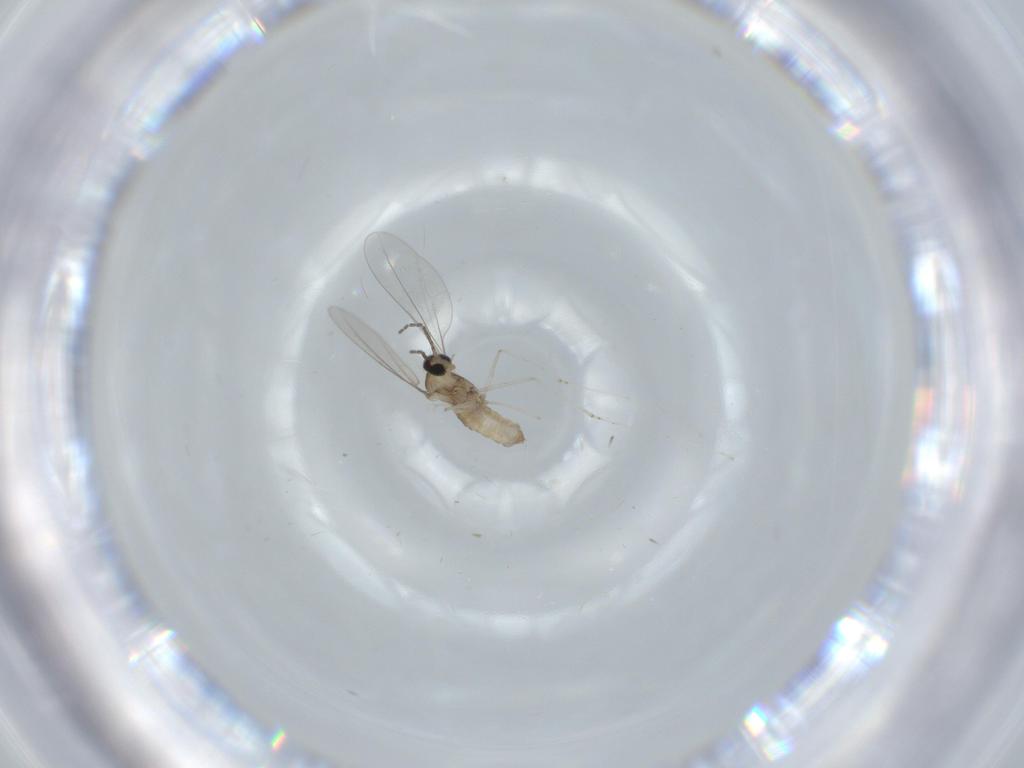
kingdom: Animalia
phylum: Arthropoda
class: Insecta
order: Diptera
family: Cecidomyiidae
